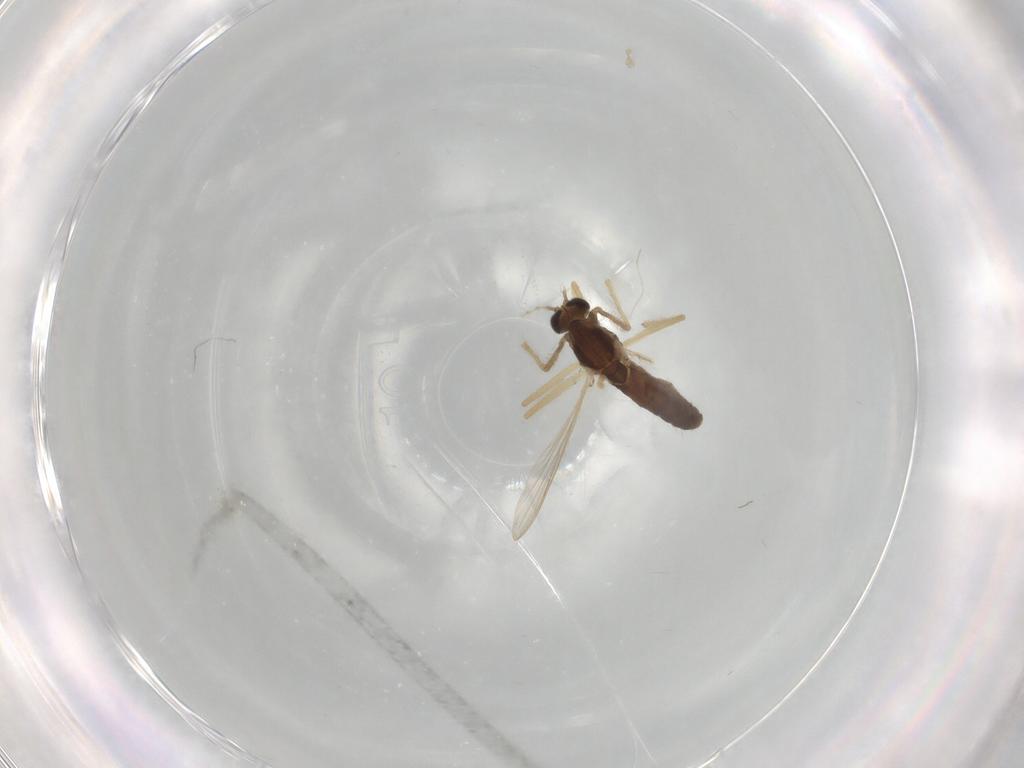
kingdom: Animalia
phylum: Arthropoda
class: Insecta
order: Diptera
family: Chironomidae
